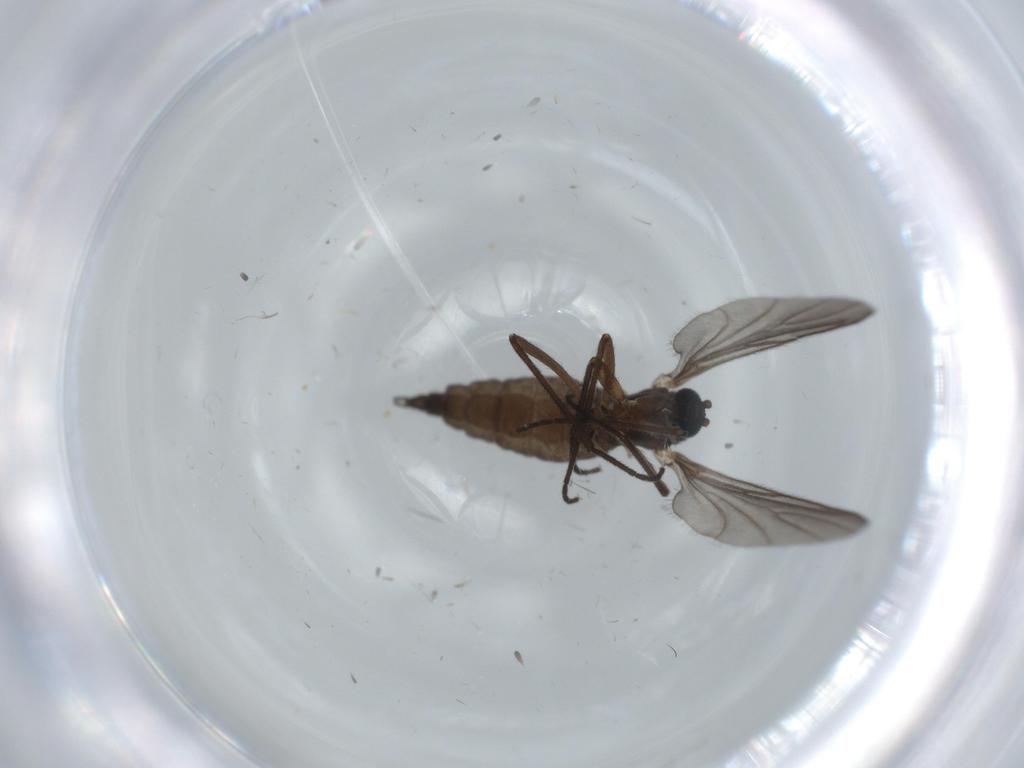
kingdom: Animalia
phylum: Arthropoda
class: Insecta
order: Diptera
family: Sciaridae
